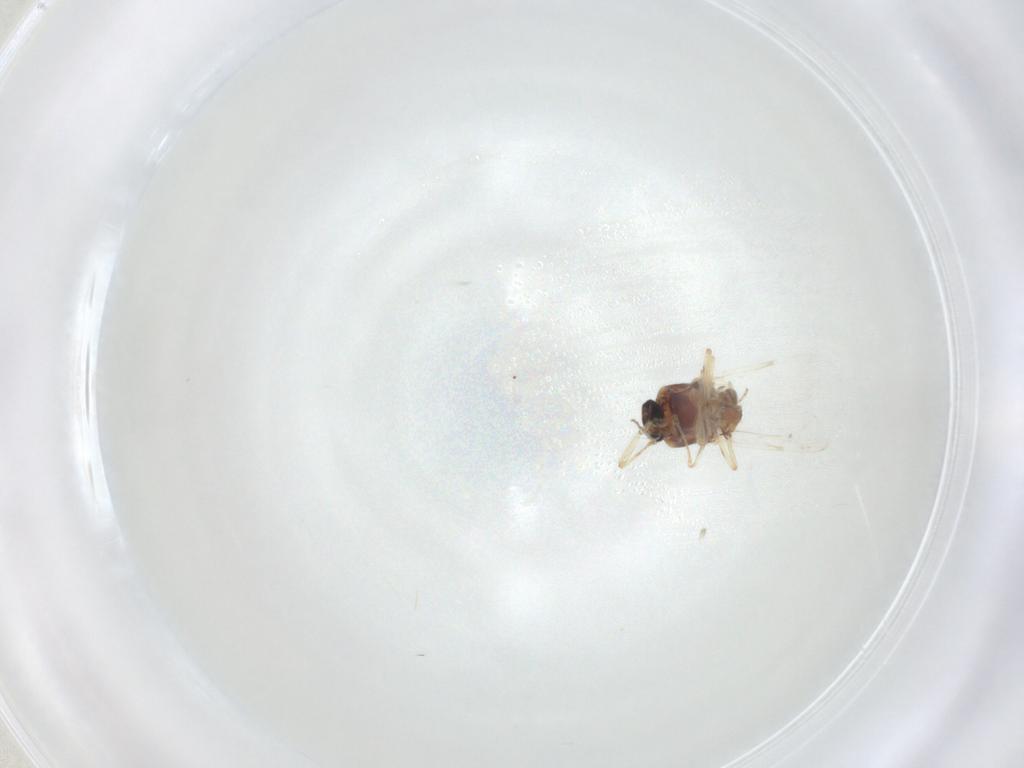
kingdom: Animalia
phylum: Arthropoda
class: Insecta
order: Diptera
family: Ceratopogonidae
